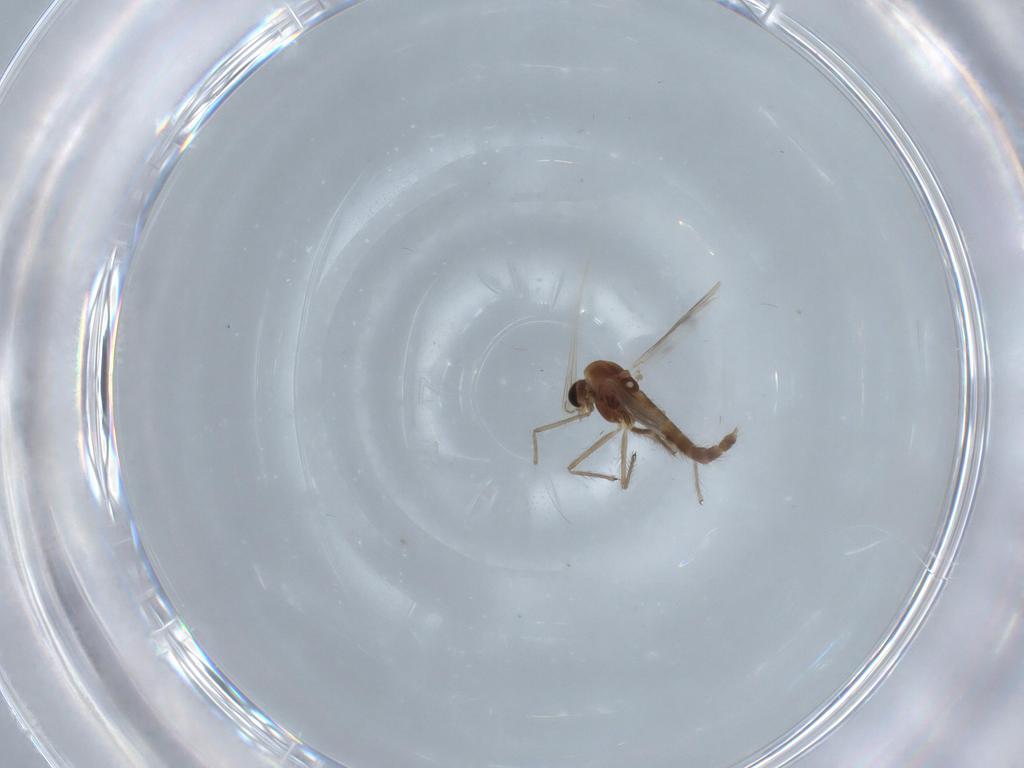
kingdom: Animalia
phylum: Arthropoda
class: Insecta
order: Diptera
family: Chironomidae
